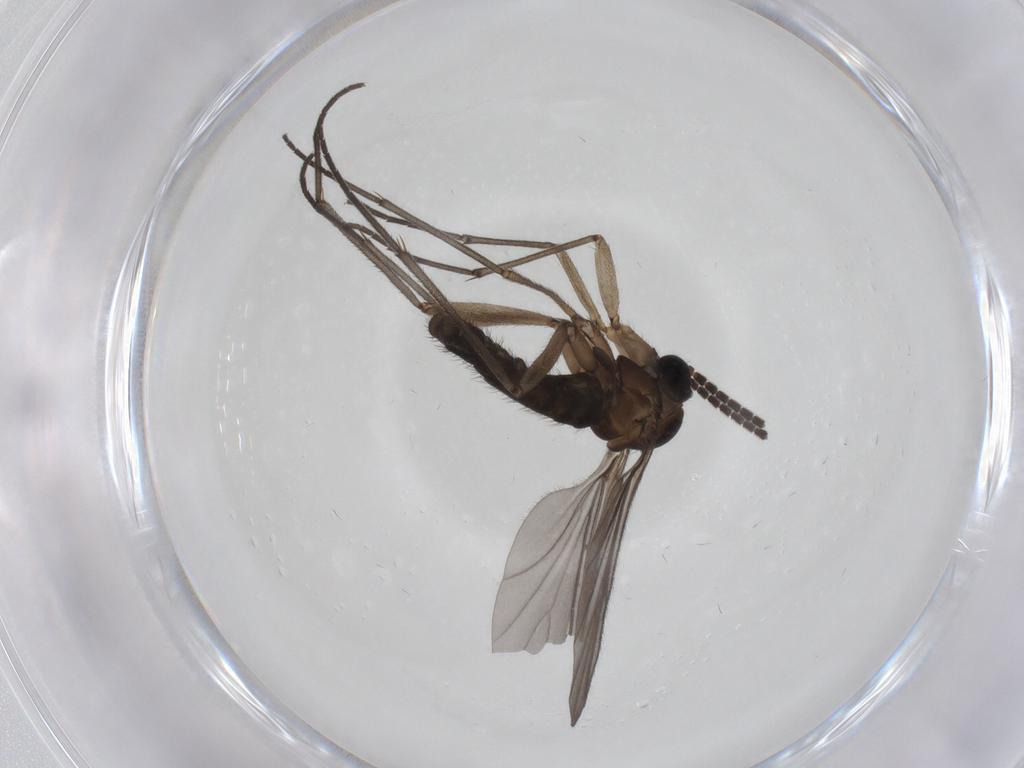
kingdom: Animalia
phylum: Arthropoda
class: Insecta
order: Diptera
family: Sciaridae
